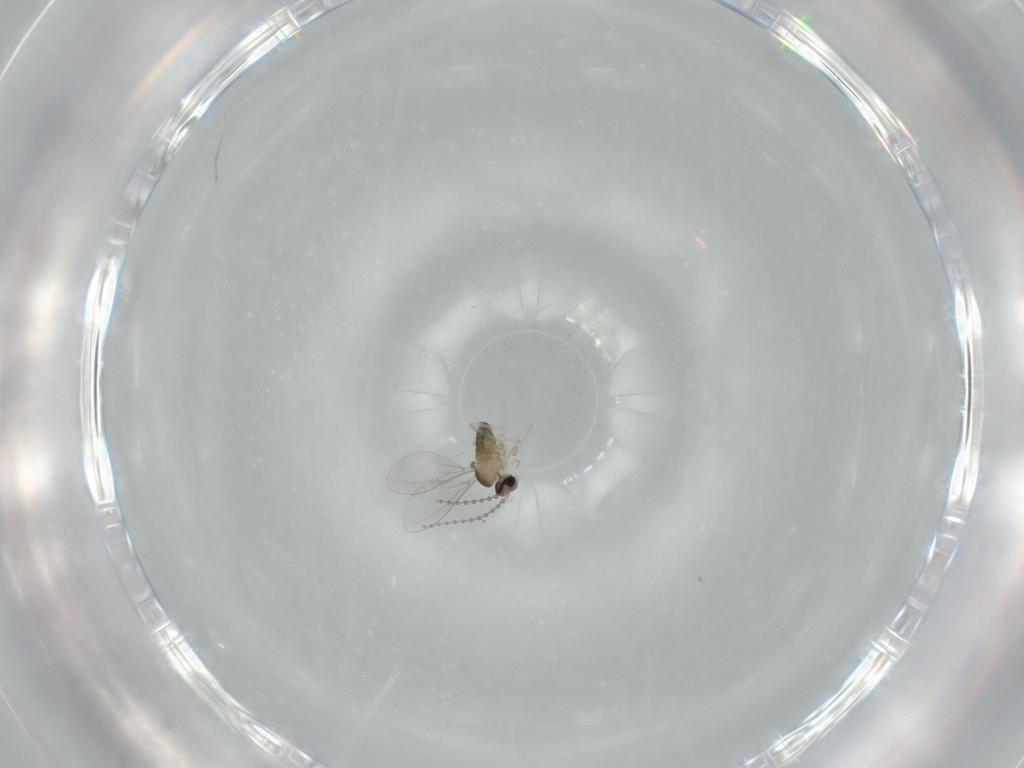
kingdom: Animalia
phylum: Arthropoda
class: Insecta
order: Diptera
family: Cecidomyiidae
